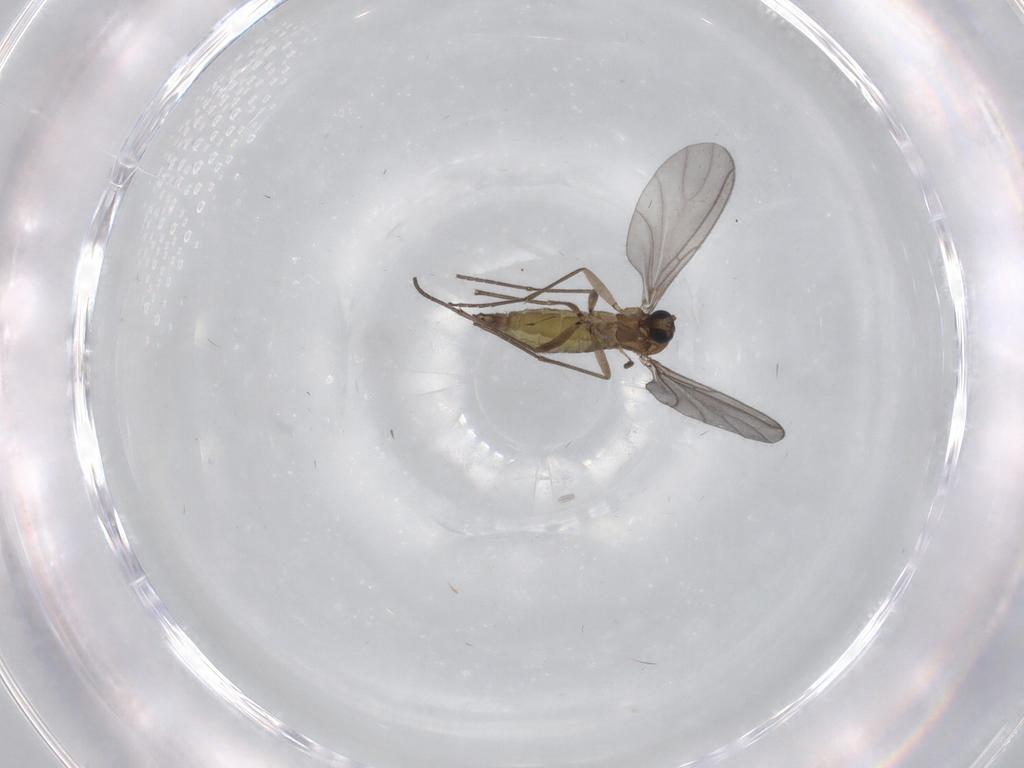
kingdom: Animalia
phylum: Arthropoda
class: Insecta
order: Diptera
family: Sciaridae
